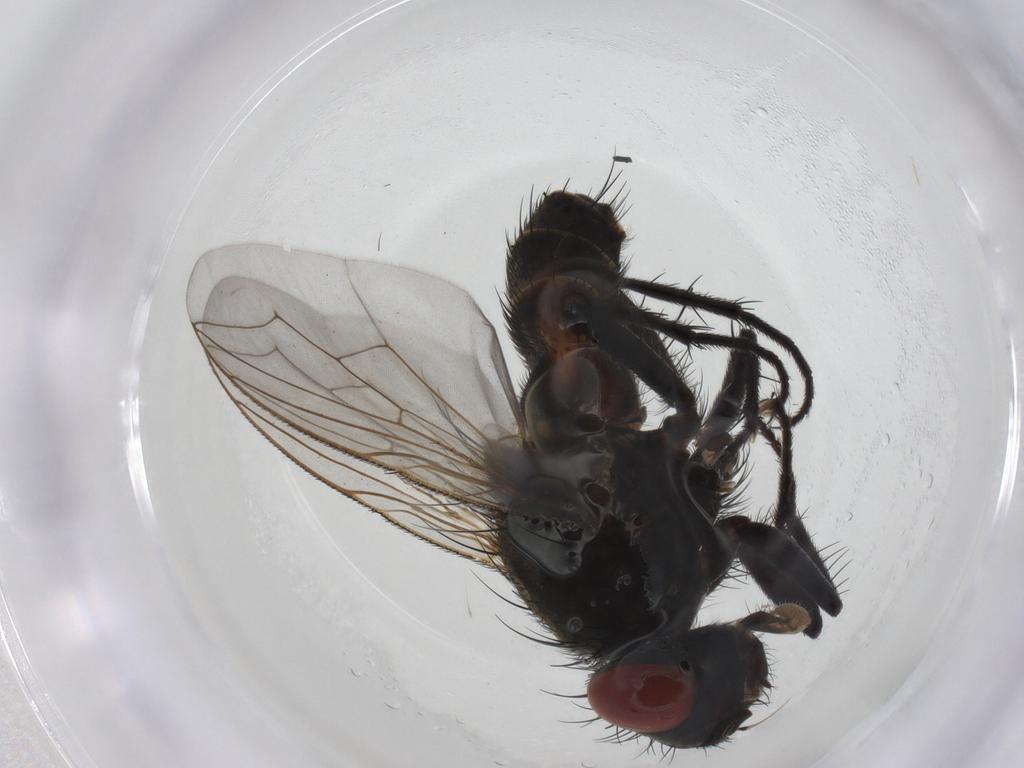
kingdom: Animalia
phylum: Arthropoda
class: Insecta
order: Diptera
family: Sarcophagidae
